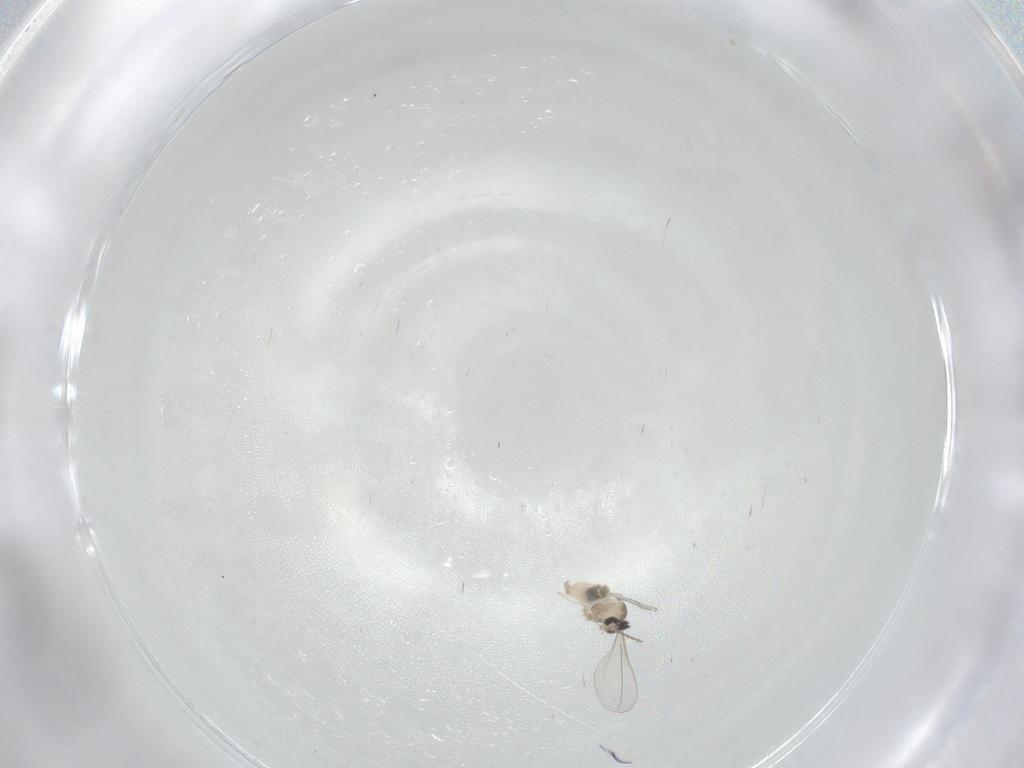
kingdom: Animalia
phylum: Arthropoda
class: Insecta
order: Diptera
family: Cecidomyiidae
